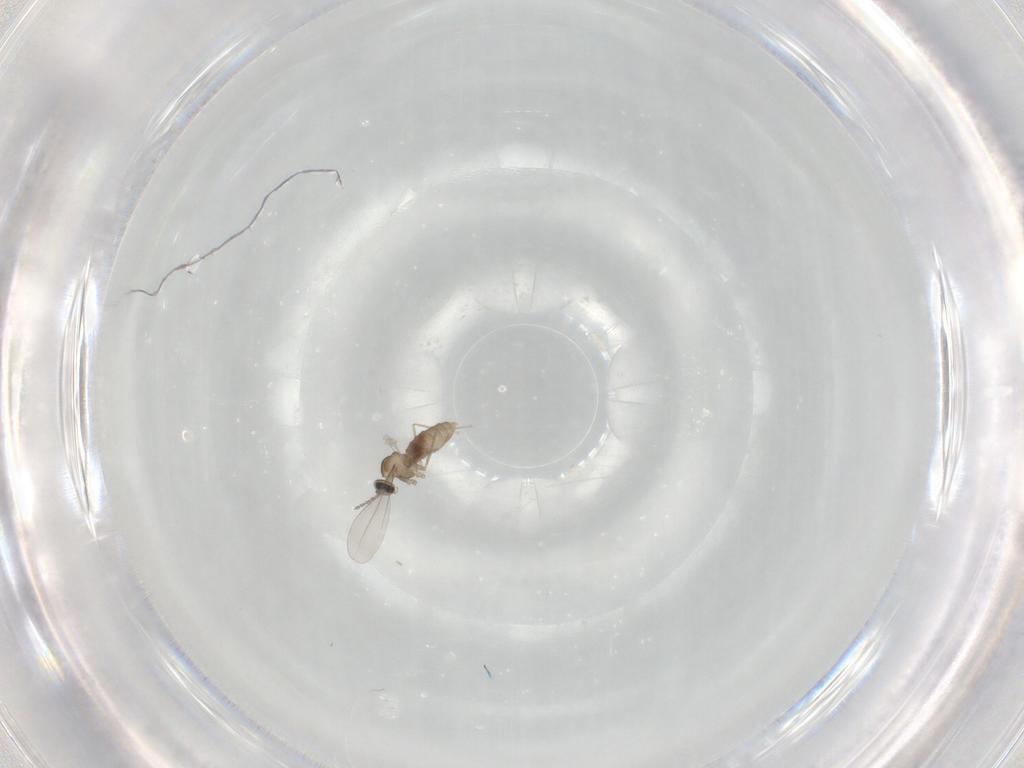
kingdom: Animalia
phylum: Arthropoda
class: Insecta
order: Diptera
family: Cecidomyiidae
